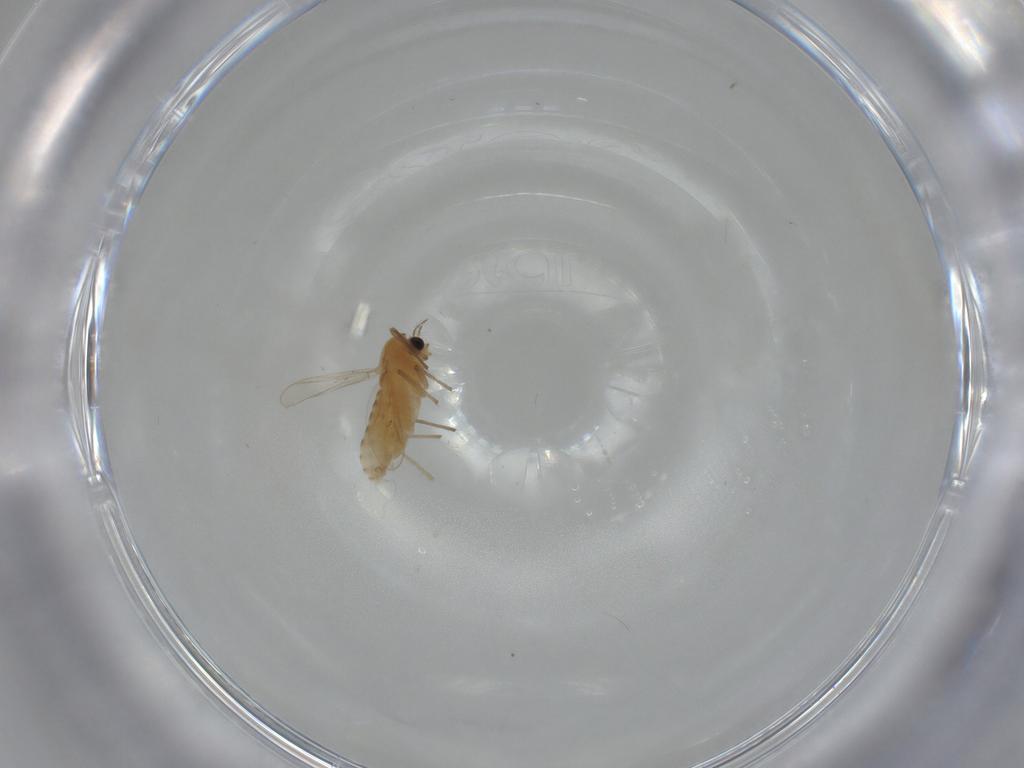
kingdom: Animalia
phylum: Arthropoda
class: Insecta
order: Diptera
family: Chironomidae
